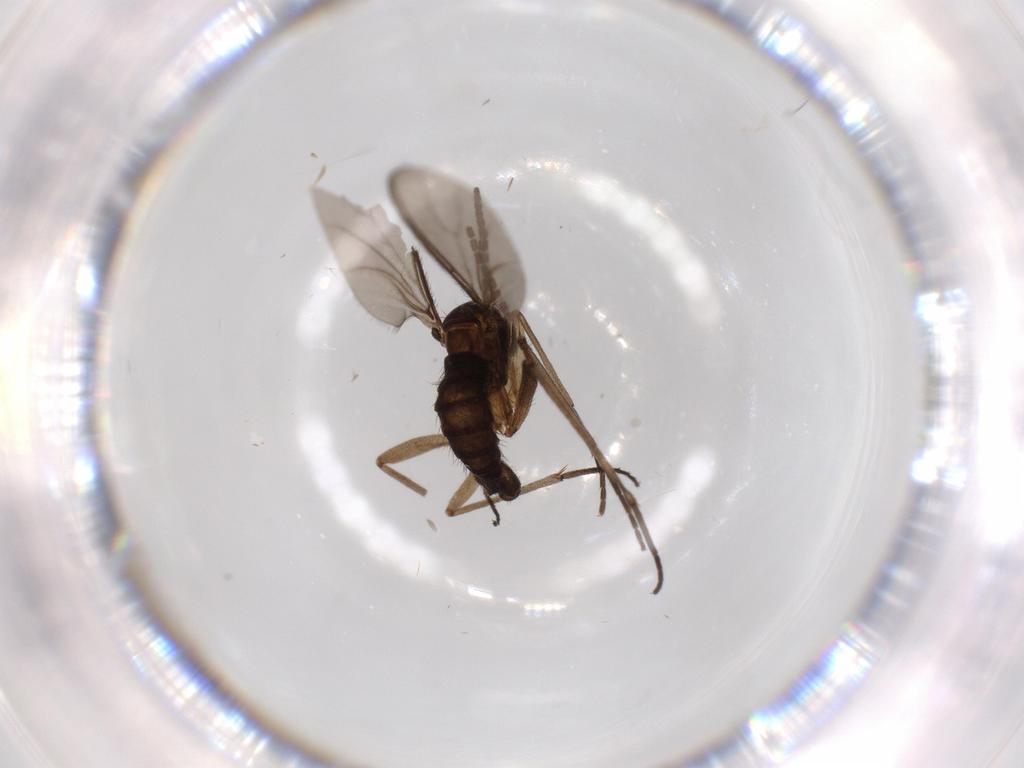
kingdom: Animalia
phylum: Arthropoda
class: Insecta
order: Diptera
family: Sciaridae
